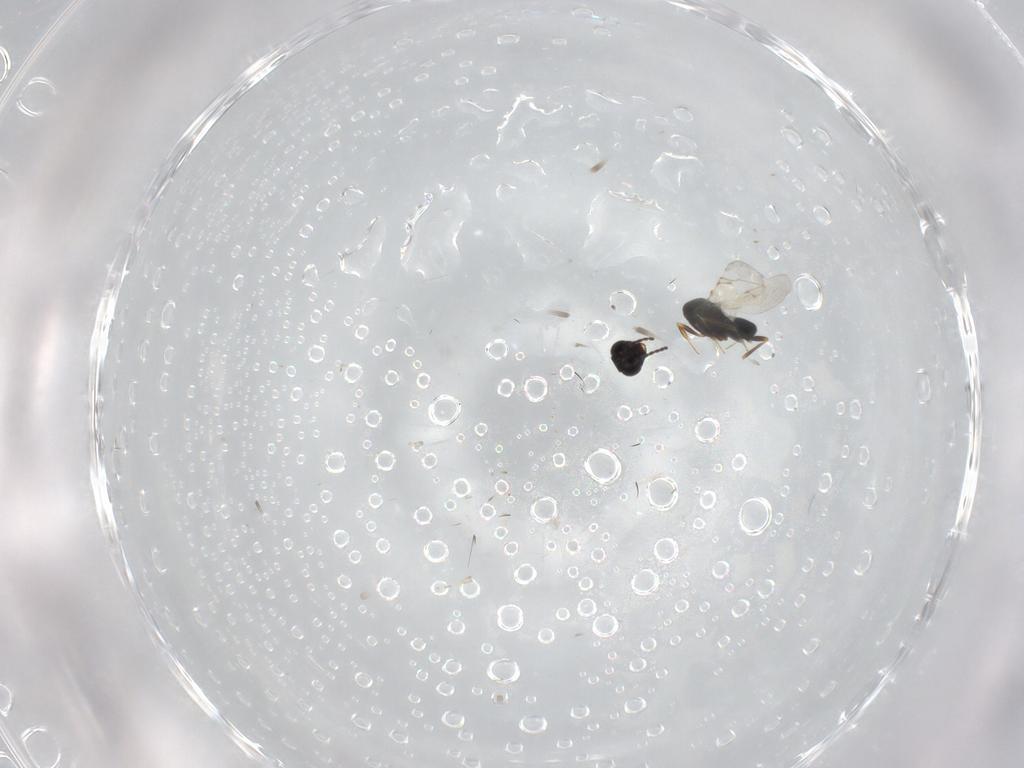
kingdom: Animalia
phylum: Arthropoda
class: Insecta
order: Hymenoptera
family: Scelionidae
